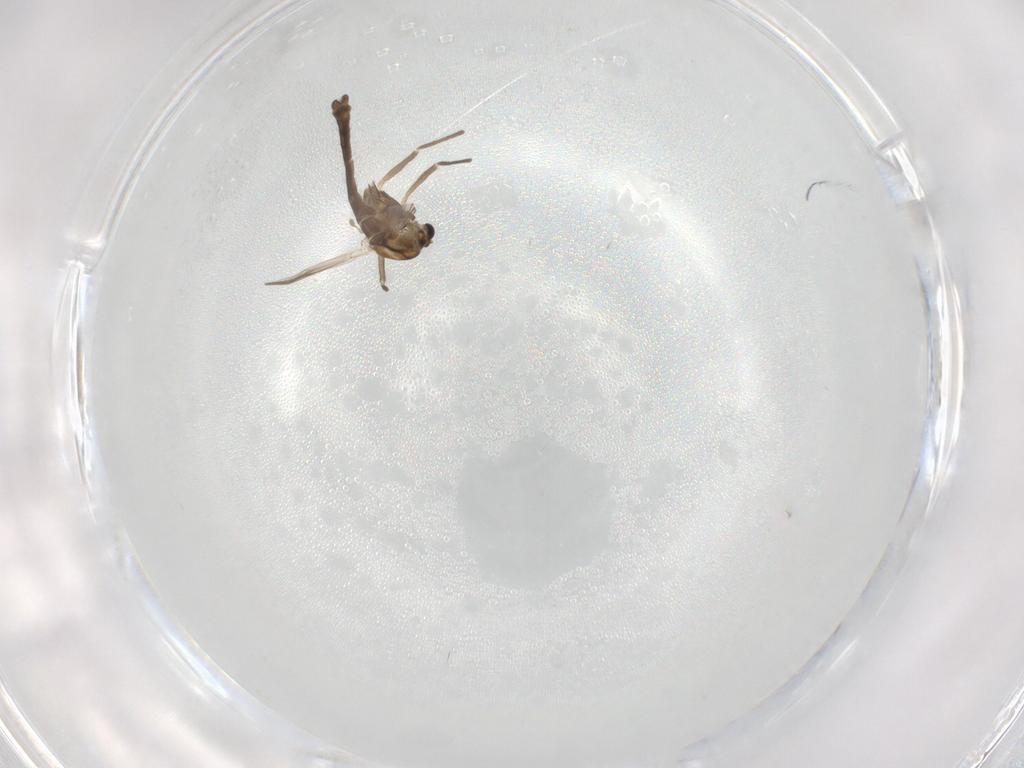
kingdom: Animalia
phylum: Arthropoda
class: Insecta
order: Diptera
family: Chironomidae
